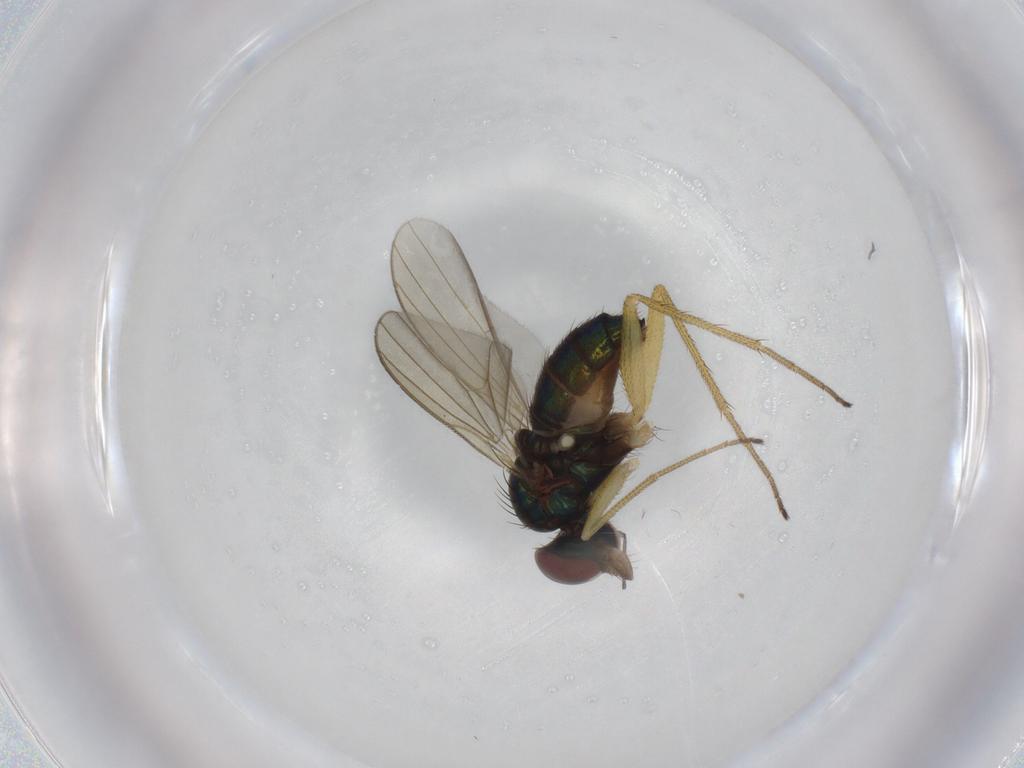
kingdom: Animalia
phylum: Arthropoda
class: Insecta
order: Diptera
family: Dolichopodidae
